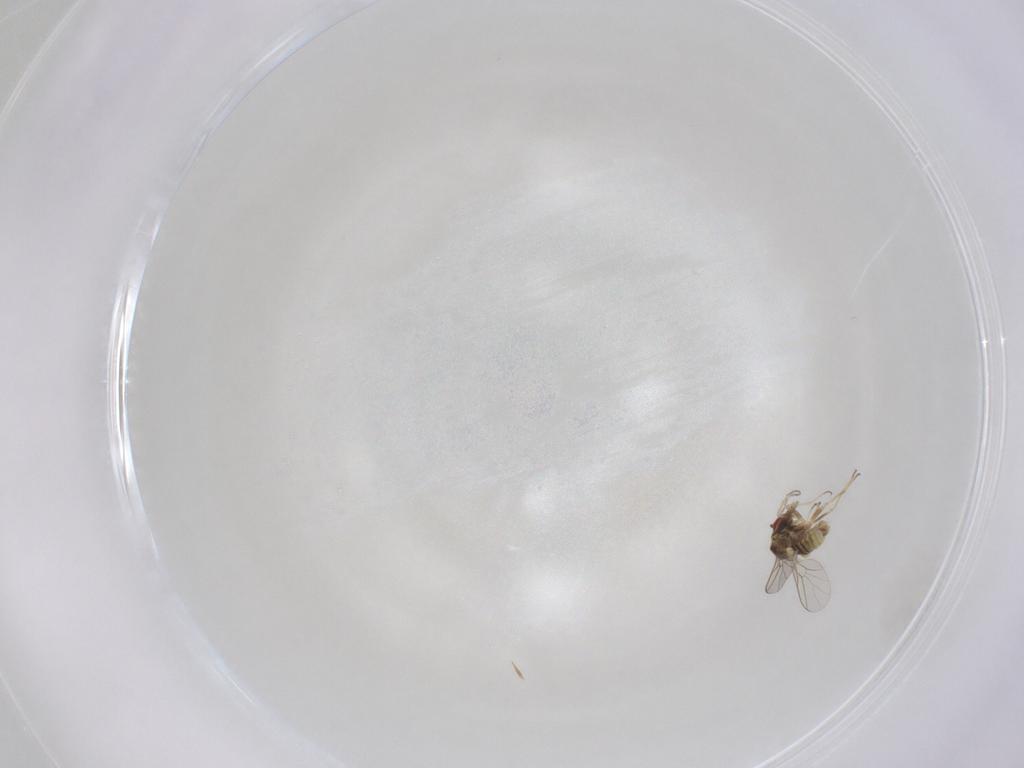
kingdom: Animalia
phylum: Arthropoda
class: Insecta
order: Diptera
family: Bombyliidae
